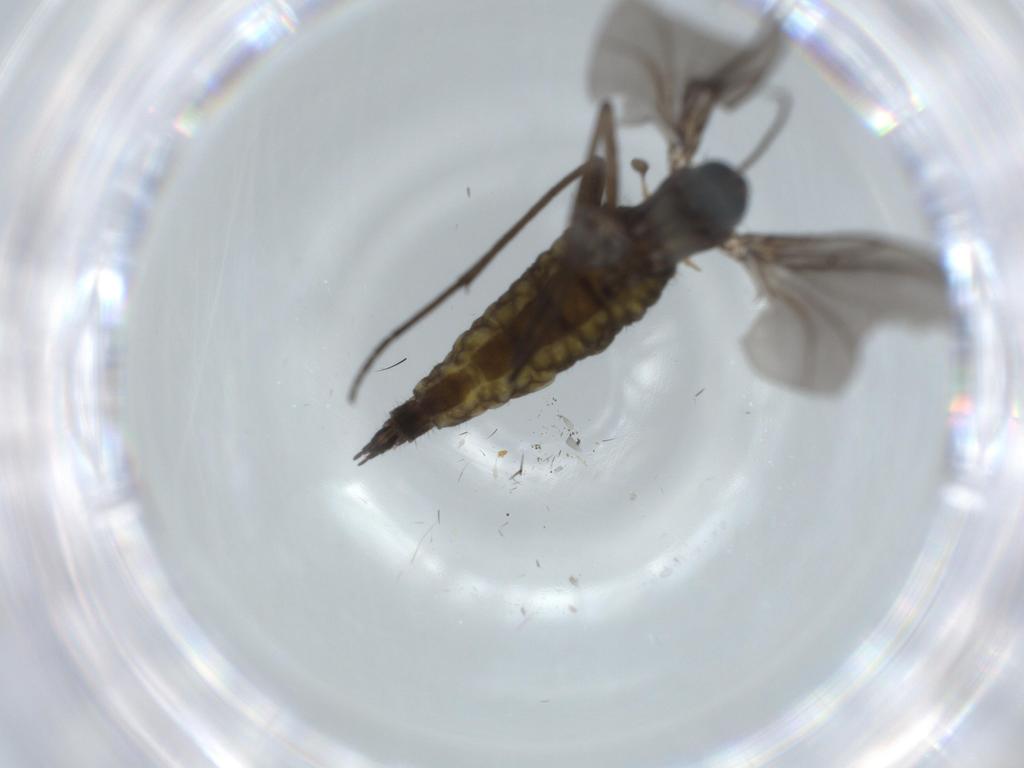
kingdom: Animalia
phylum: Arthropoda
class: Insecta
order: Diptera
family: Sciaridae
